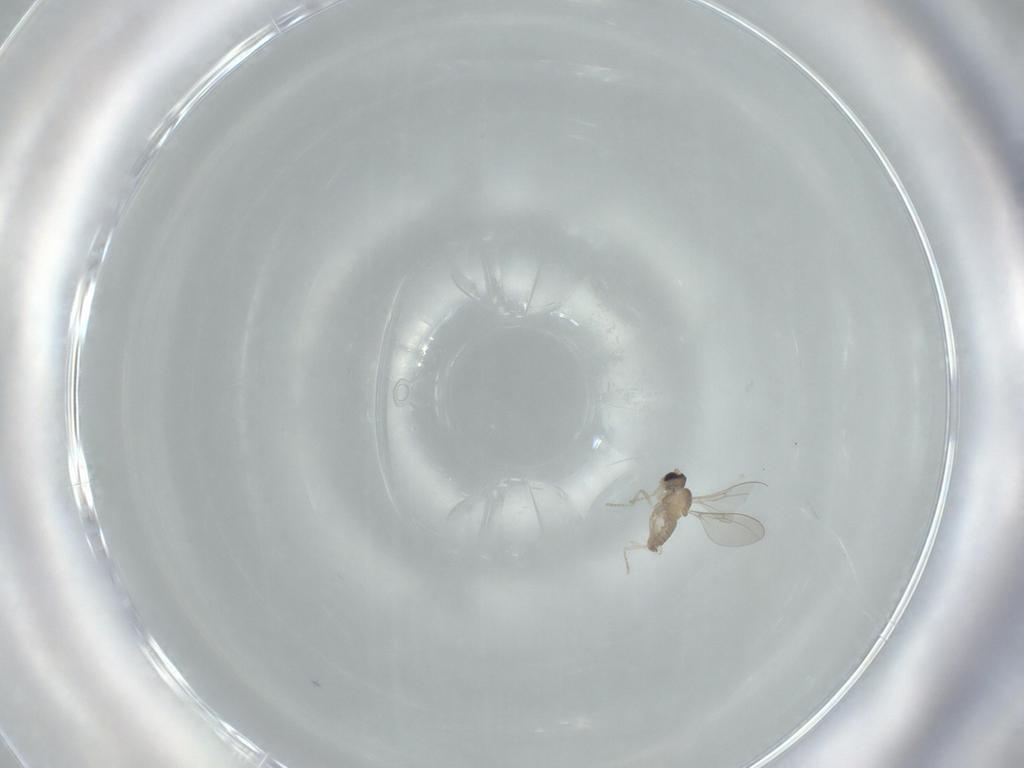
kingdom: Animalia
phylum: Arthropoda
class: Insecta
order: Diptera
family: Cecidomyiidae
